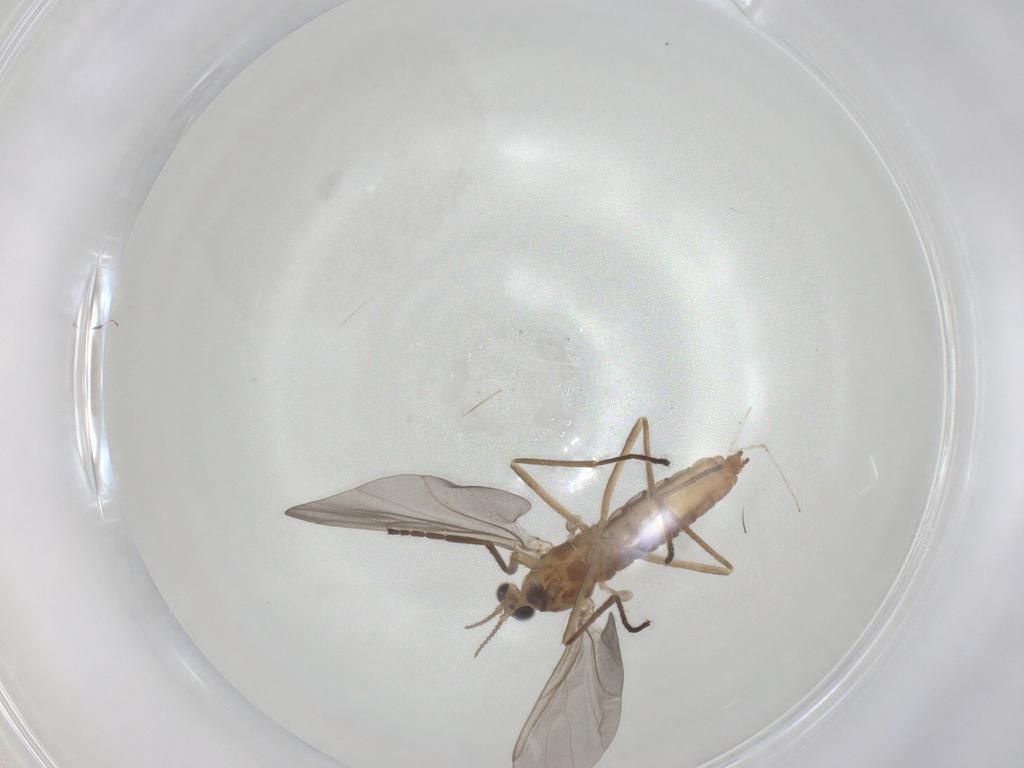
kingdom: Animalia
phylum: Arthropoda
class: Insecta
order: Diptera
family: Cecidomyiidae
